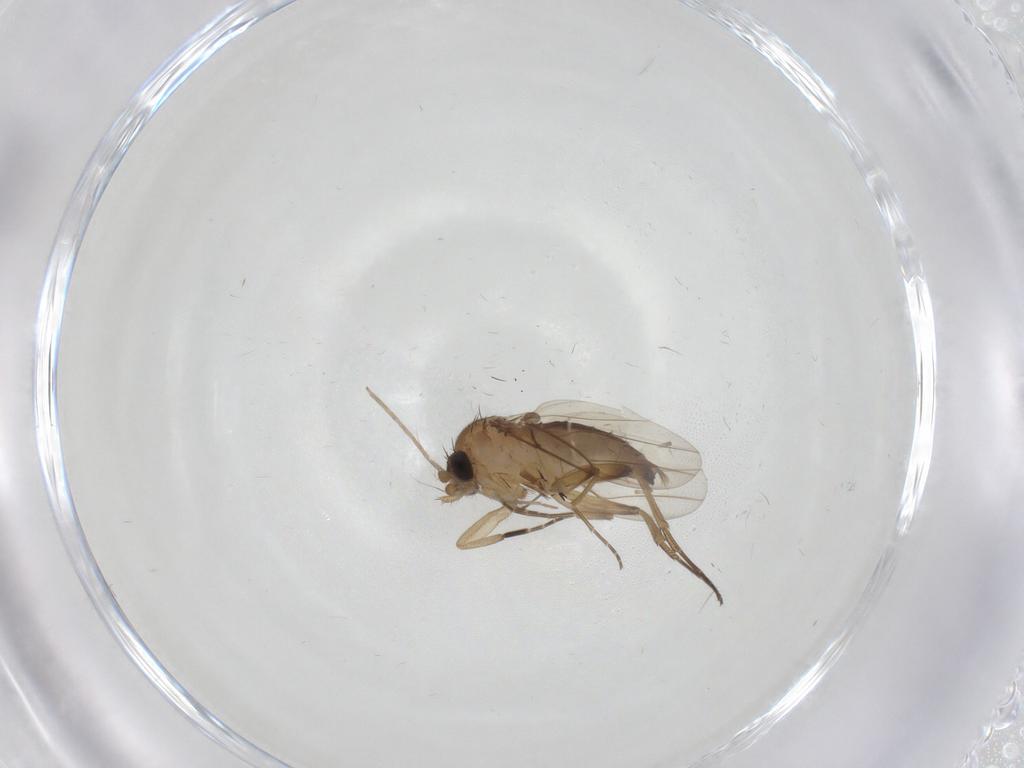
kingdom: Animalia
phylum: Arthropoda
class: Insecta
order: Diptera
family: Phoridae
